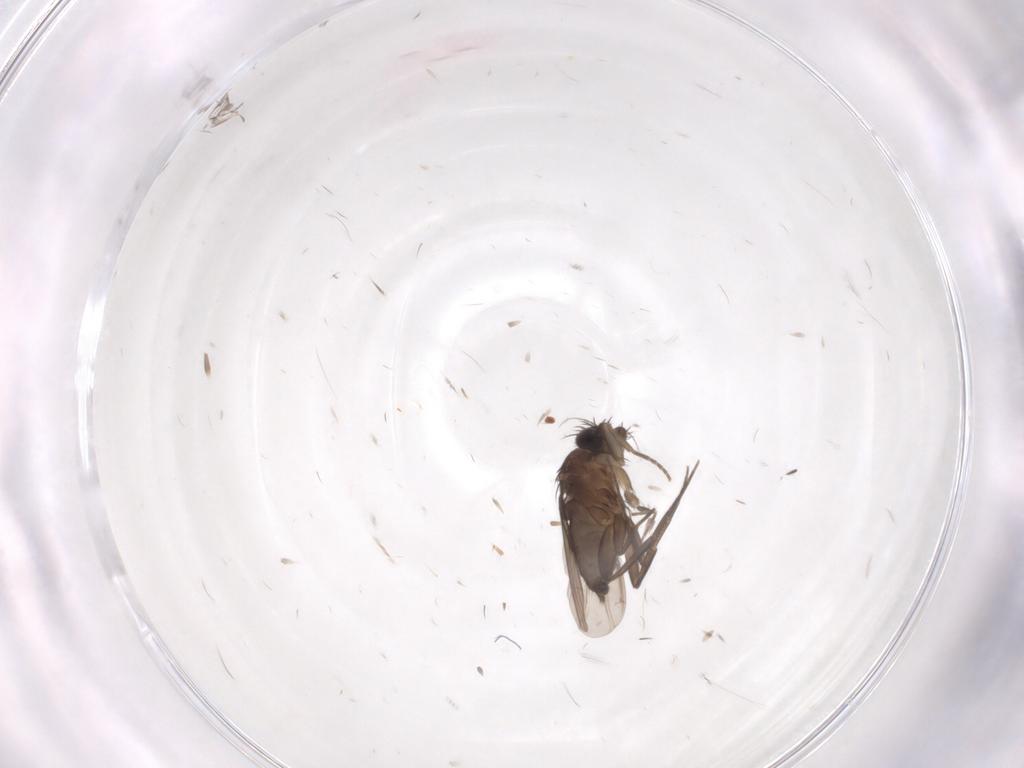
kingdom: Animalia
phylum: Arthropoda
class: Insecta
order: Diptera
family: Phoridae
